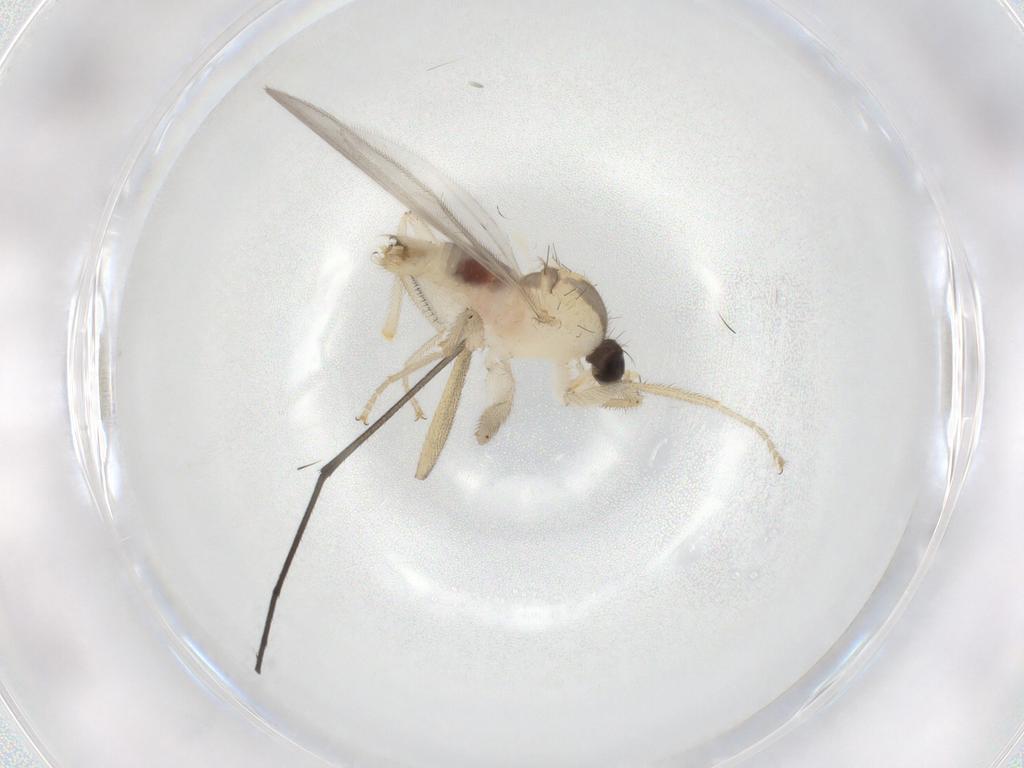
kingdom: Animalia
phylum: Arthropoda
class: Insecta
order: Diptera
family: Hybotidae
